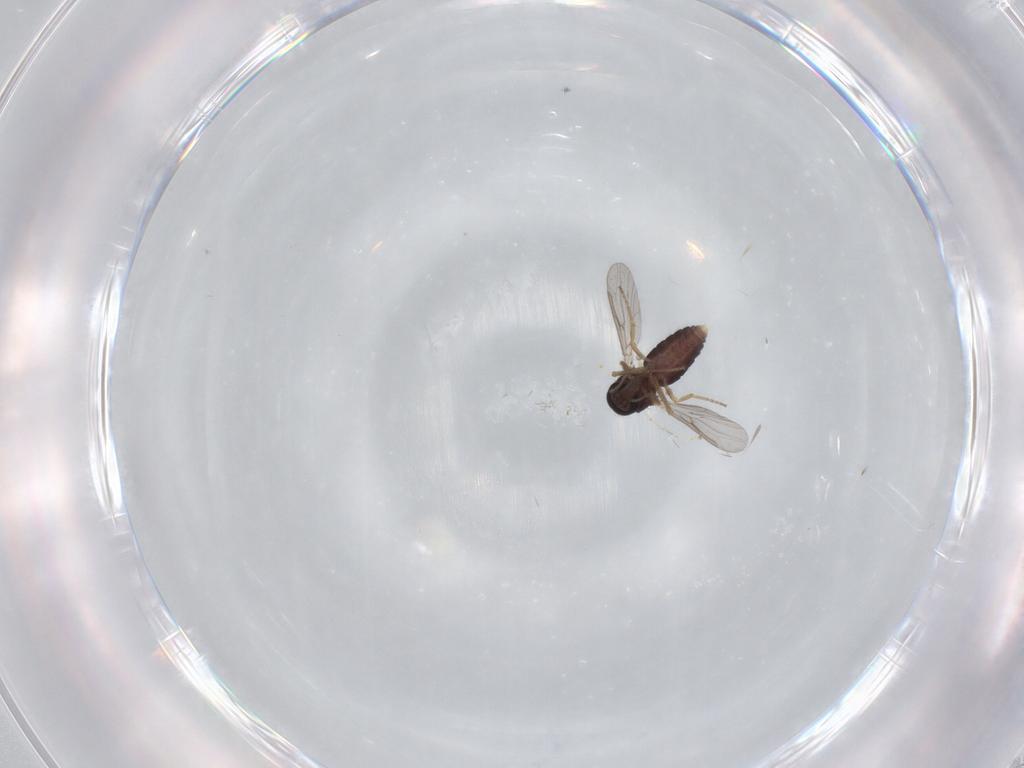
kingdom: Animalia
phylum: Arthropoda
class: Insecta
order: Diptera
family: Ceratopogonidae
